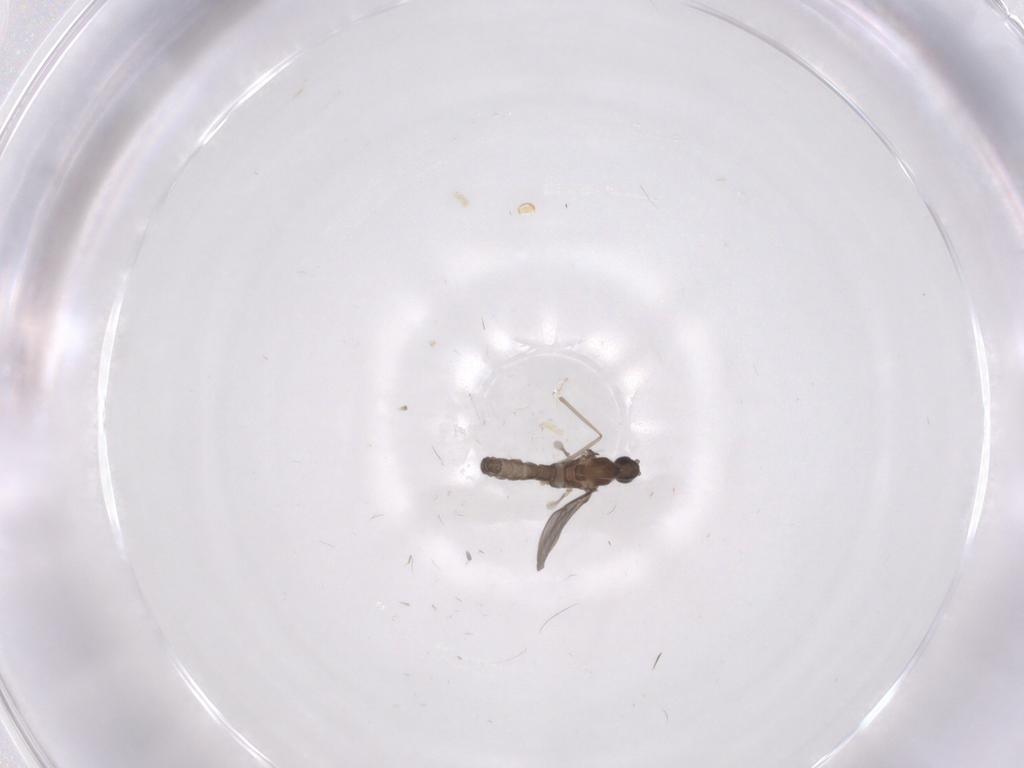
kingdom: Animalia
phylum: Arthropoda
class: Insecta
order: Diptera
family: Cecidomyiidae
